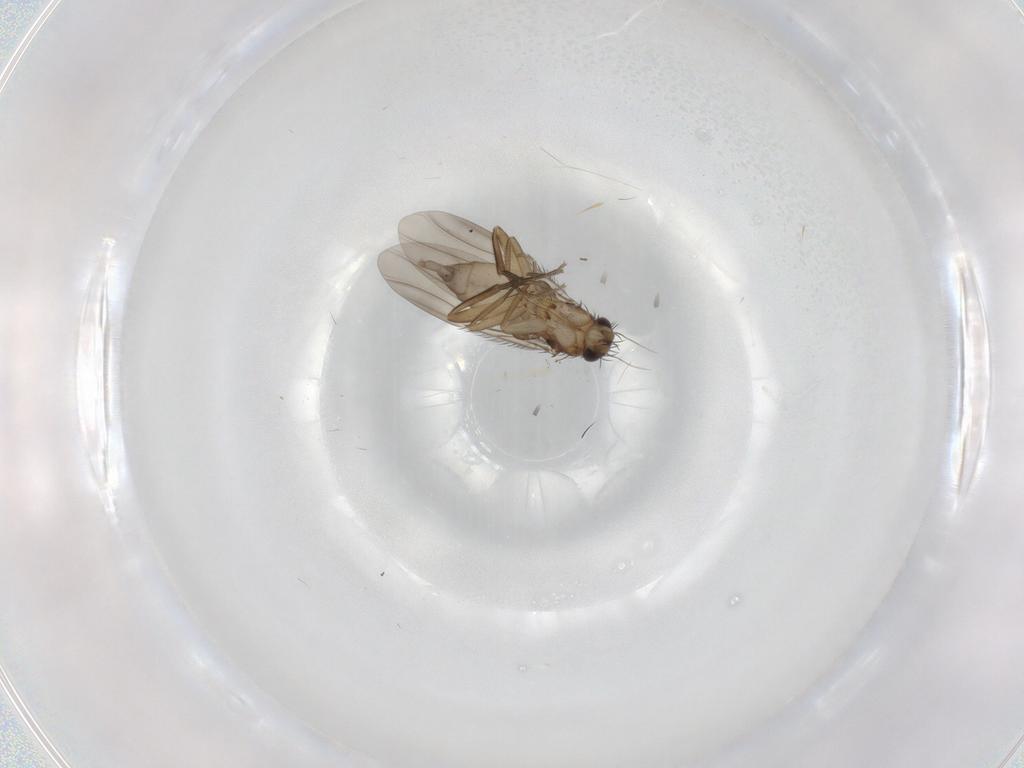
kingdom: Animalia
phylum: Arthropoda
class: Insecta
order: Diptera
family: Phoridae
